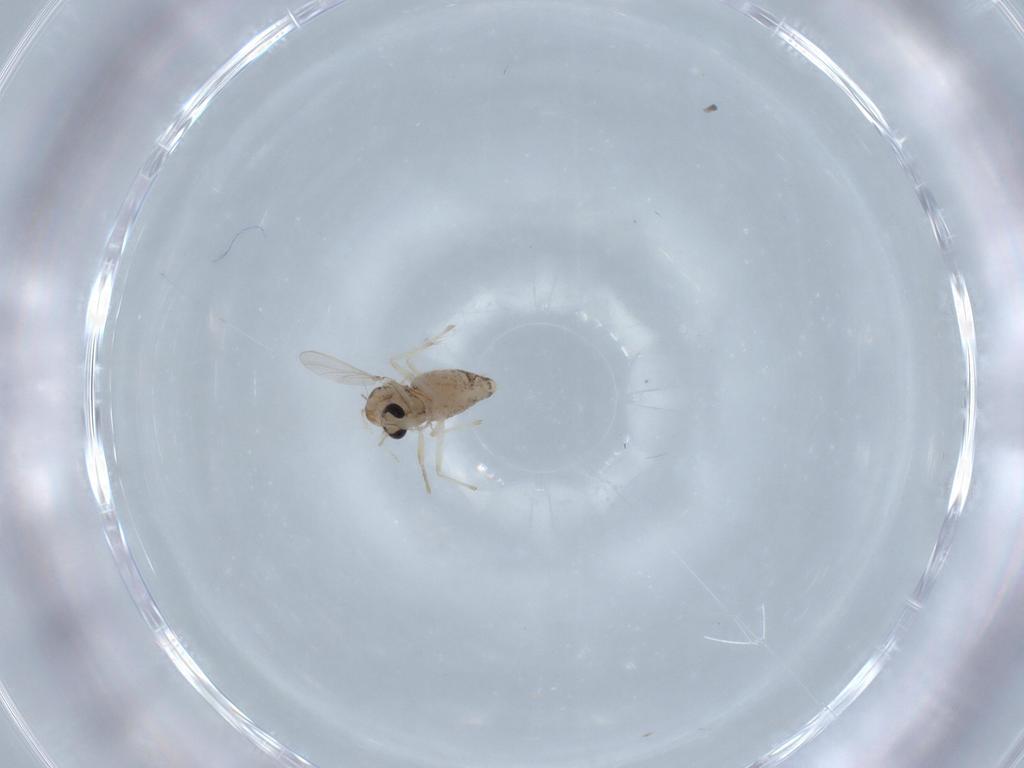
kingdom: Animalia
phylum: Arthropoda
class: Insecta
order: Diptera
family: Chironomidae
